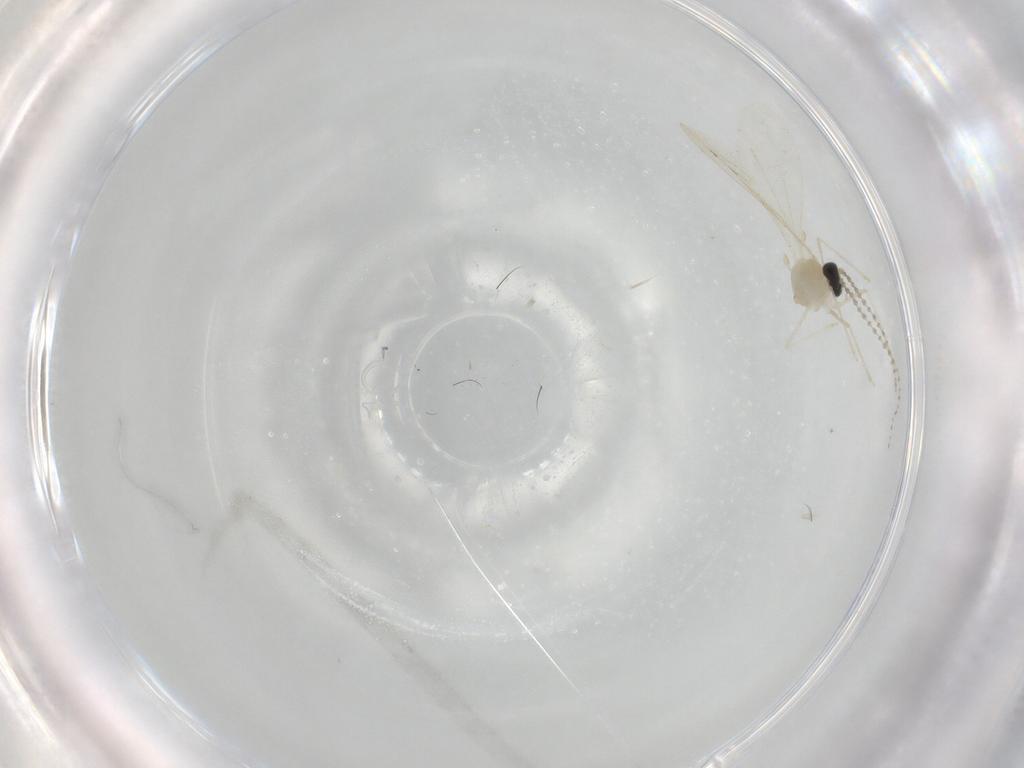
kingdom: Animalia
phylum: Arthropoda
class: Insecta
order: Diptera
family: Cecidomyiidae
